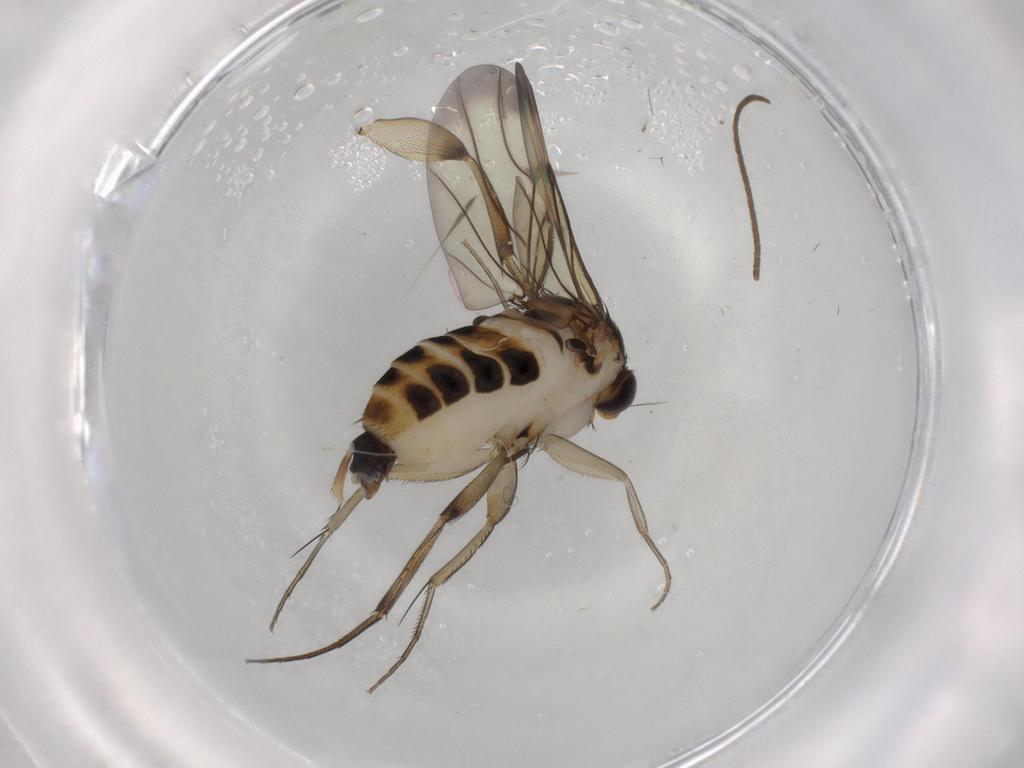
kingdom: Animalia
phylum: Arthropoda
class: Insecta
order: Diptera
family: Phoridae
